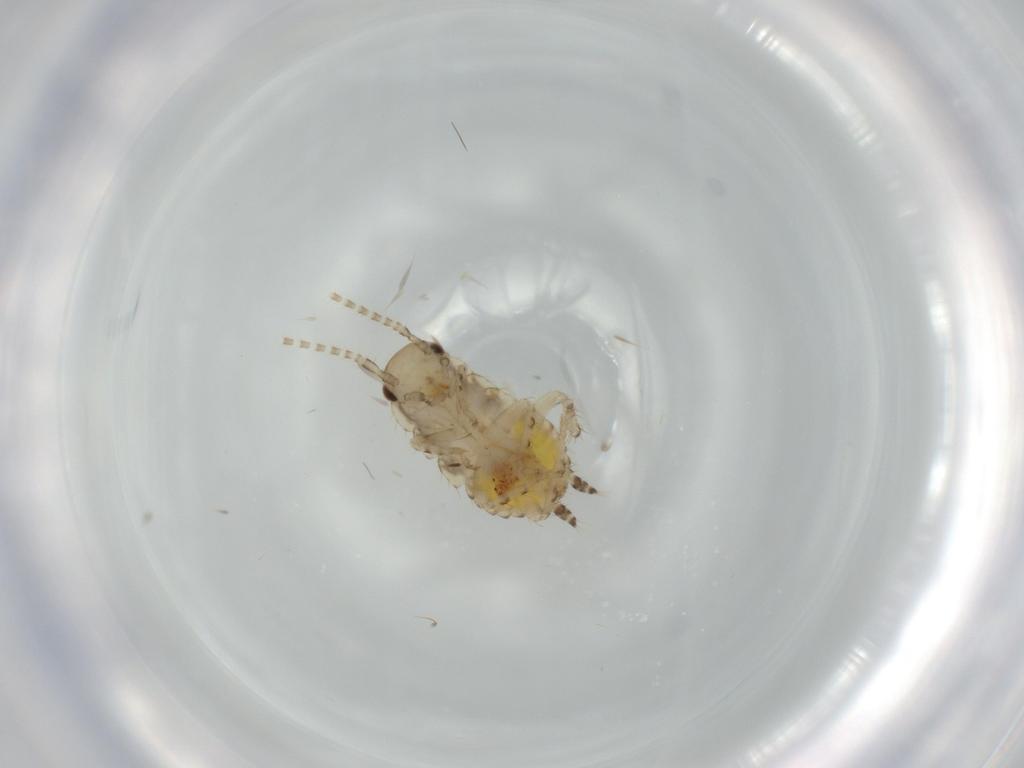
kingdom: Animalia
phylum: Arthropoda
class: Insecta
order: Blattodea
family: Ectobiidae
